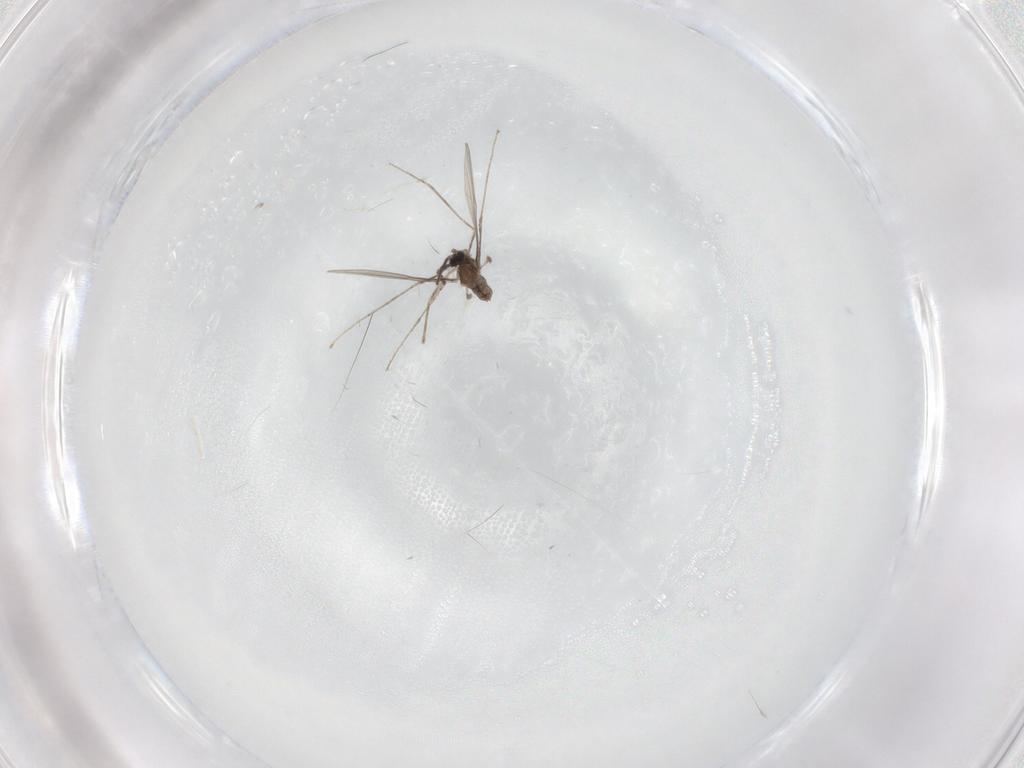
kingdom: Animalia
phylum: Arthropoda
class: Insecta
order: Diptera
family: Cecidomyiidae
